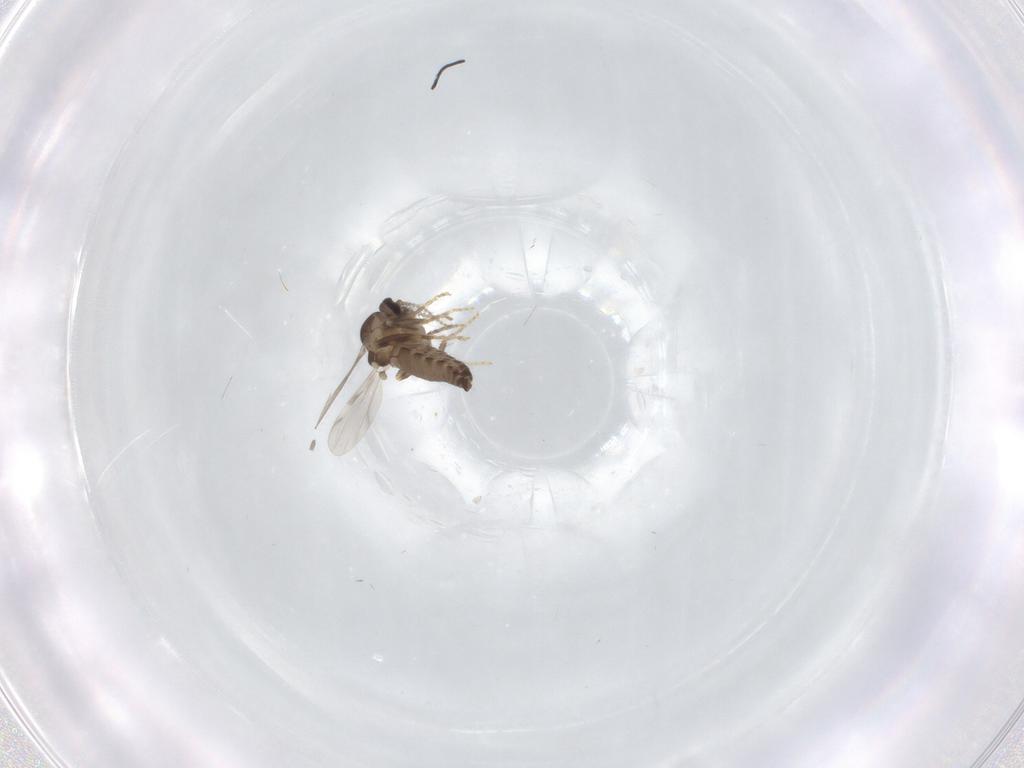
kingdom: Animalia
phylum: Arthropoda
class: Insecta
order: Diptera
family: Ceratopogonidae
